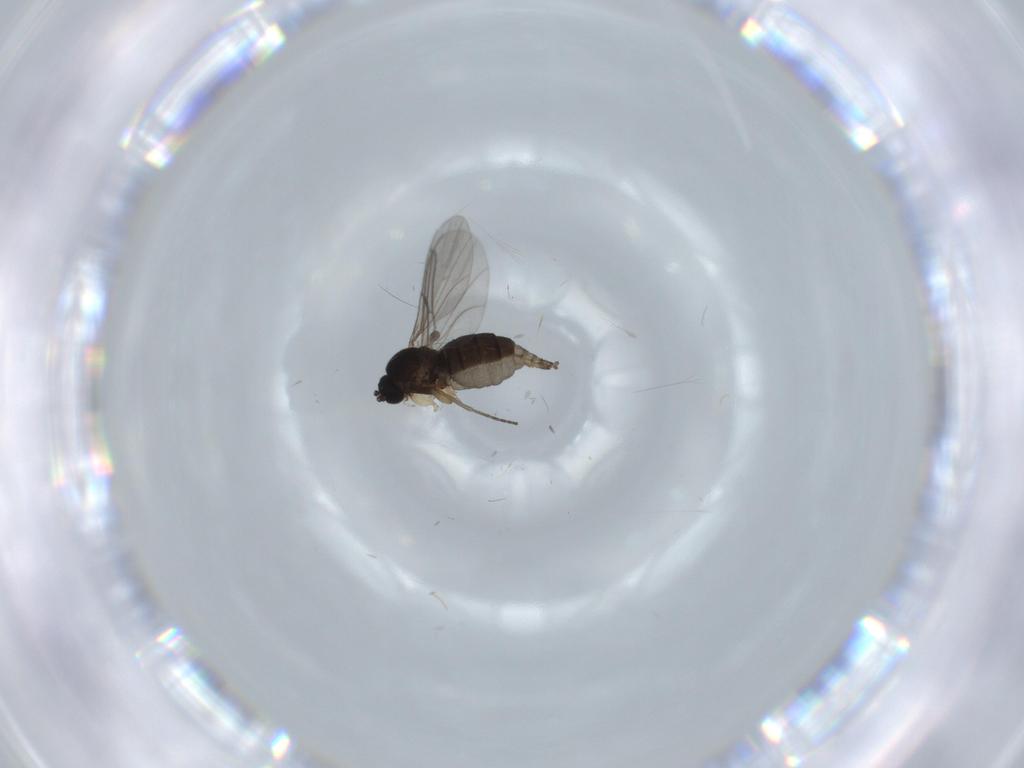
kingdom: Animalia
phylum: Arthropoda
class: Insecta
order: Diptera
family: Sciaridae
